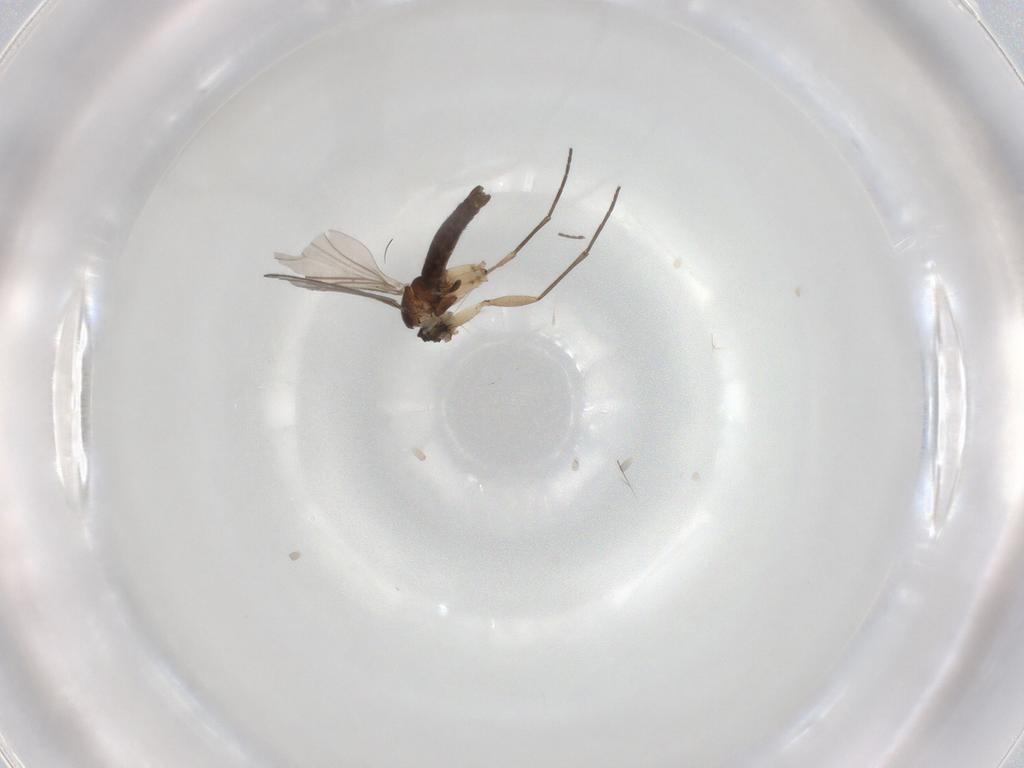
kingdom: Animalia
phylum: Arthropoda
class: Insecta
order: Diptera
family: Sciaridae
